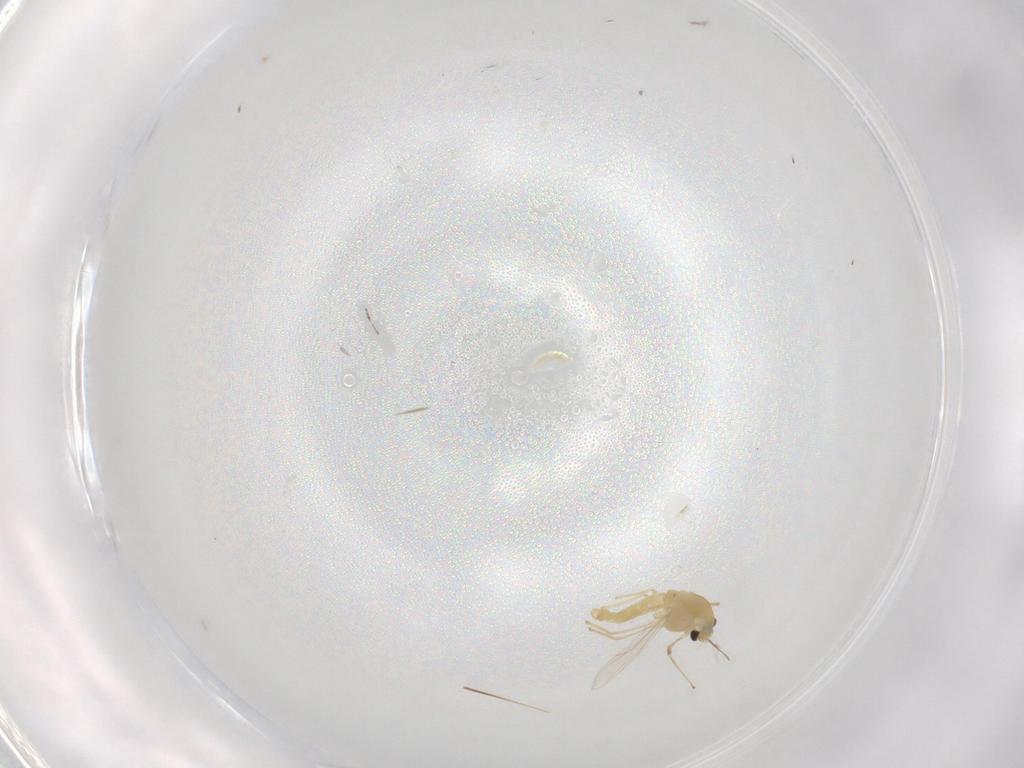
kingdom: Animalia
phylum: Arthropoda
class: Insecta
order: Diptera
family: Chironomidae
